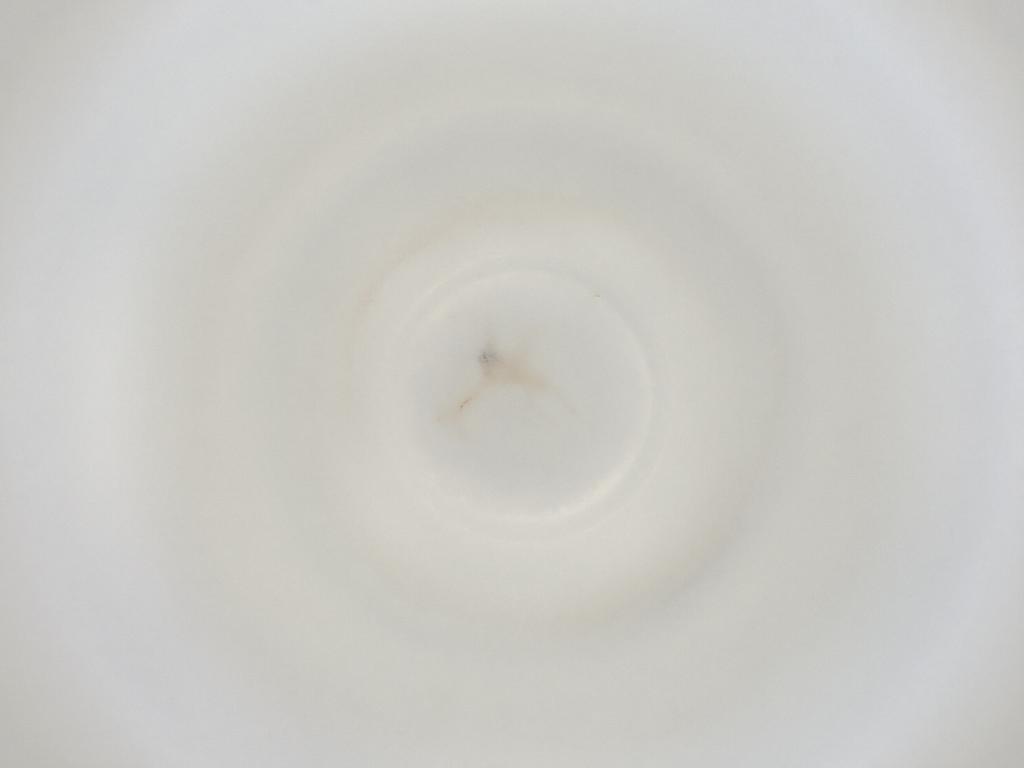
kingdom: Animalia
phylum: Arthropoda
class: Insecta
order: Diptera
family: Cecidomyiidae
